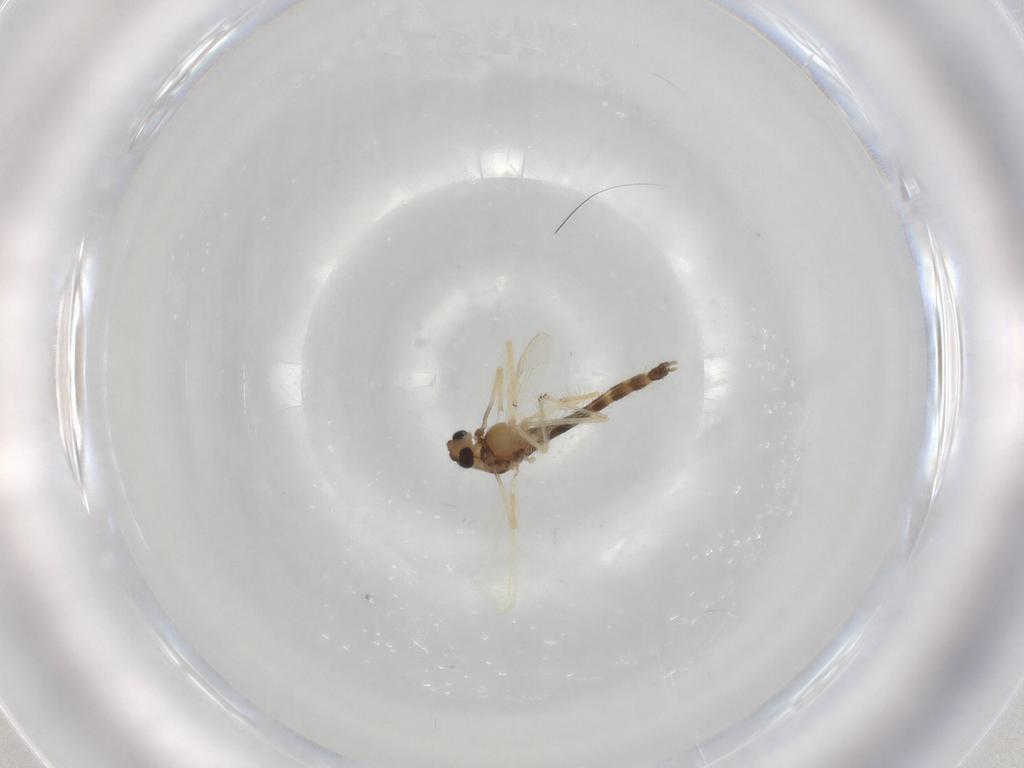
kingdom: Animalia
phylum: Arthropoda
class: Insecta
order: Diptera
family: Chironomidae
